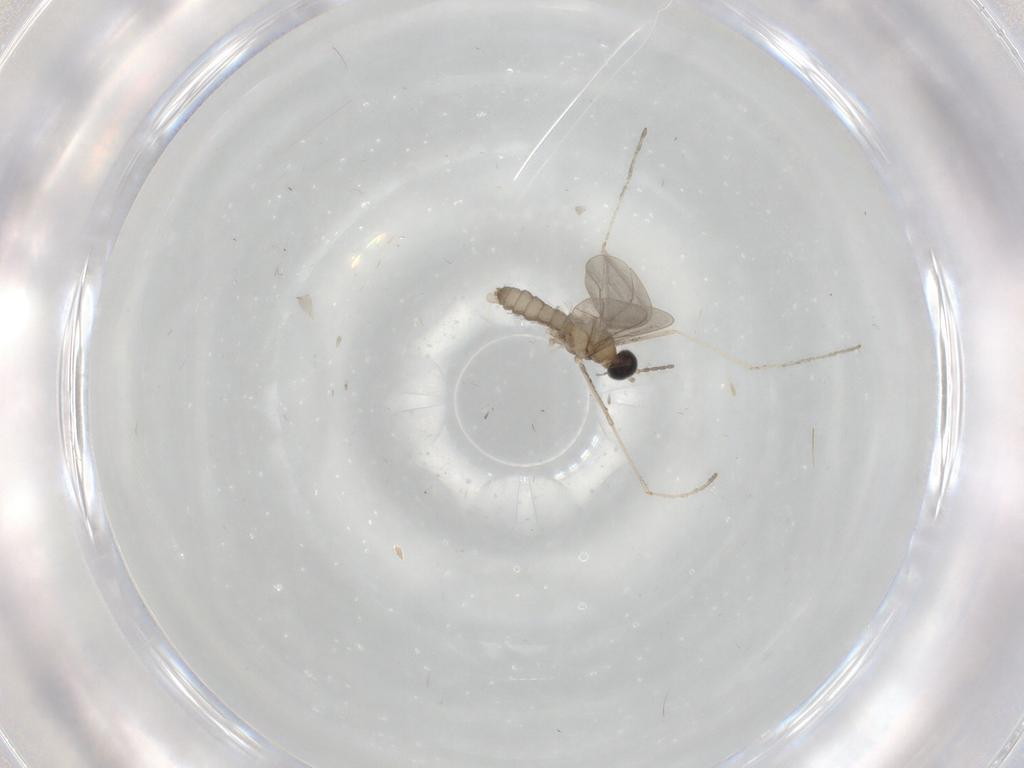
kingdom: Animalia
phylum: Arthropoda
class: Insecta
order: Diptera
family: Cecidomyiidae
